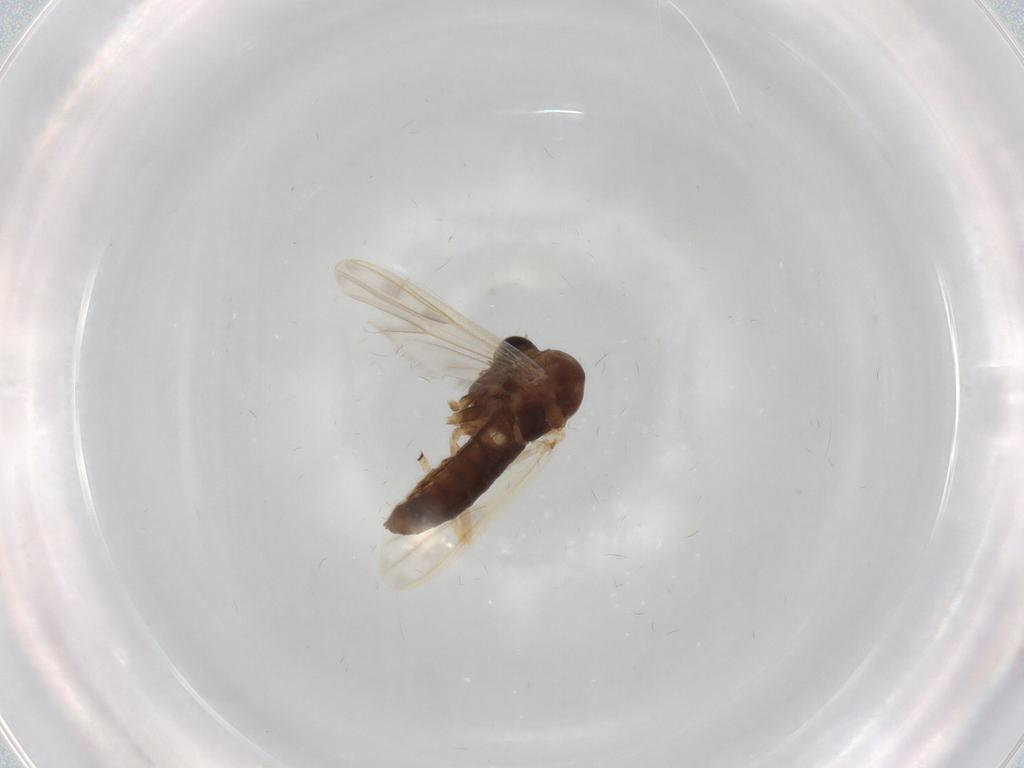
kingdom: Animalia
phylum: Arthropoda
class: Insecta
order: Diptera
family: Chironomidae
